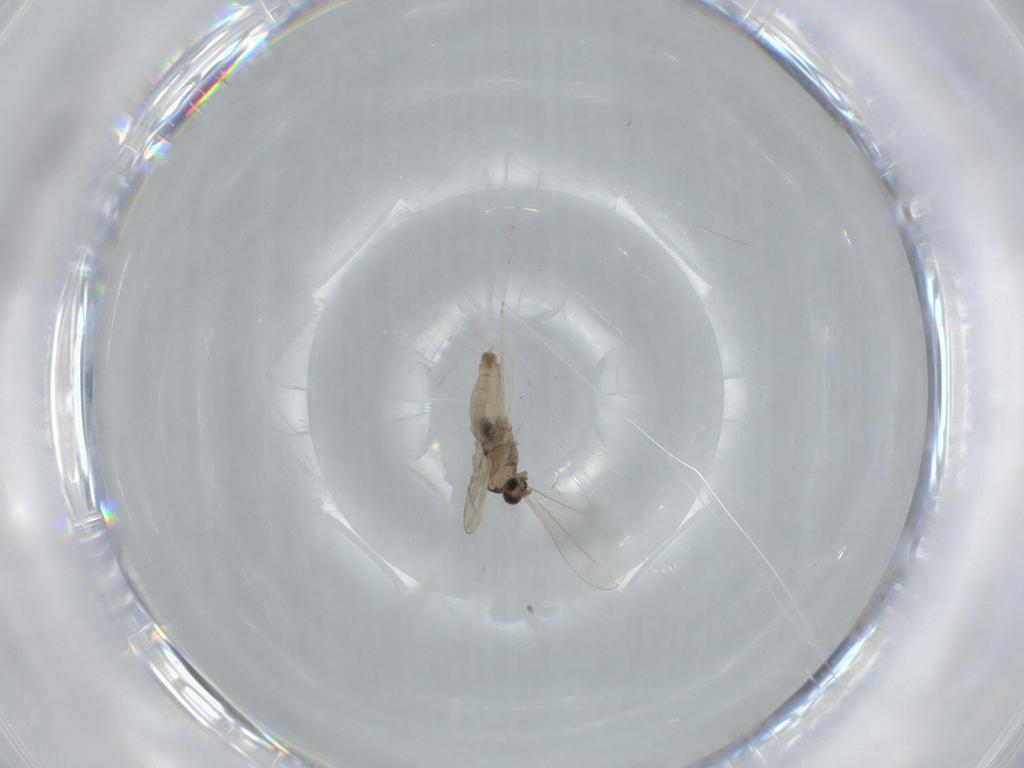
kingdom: Animalia
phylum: Arthropoda
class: Insecta
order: Diptera
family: Cecidomyiidae
